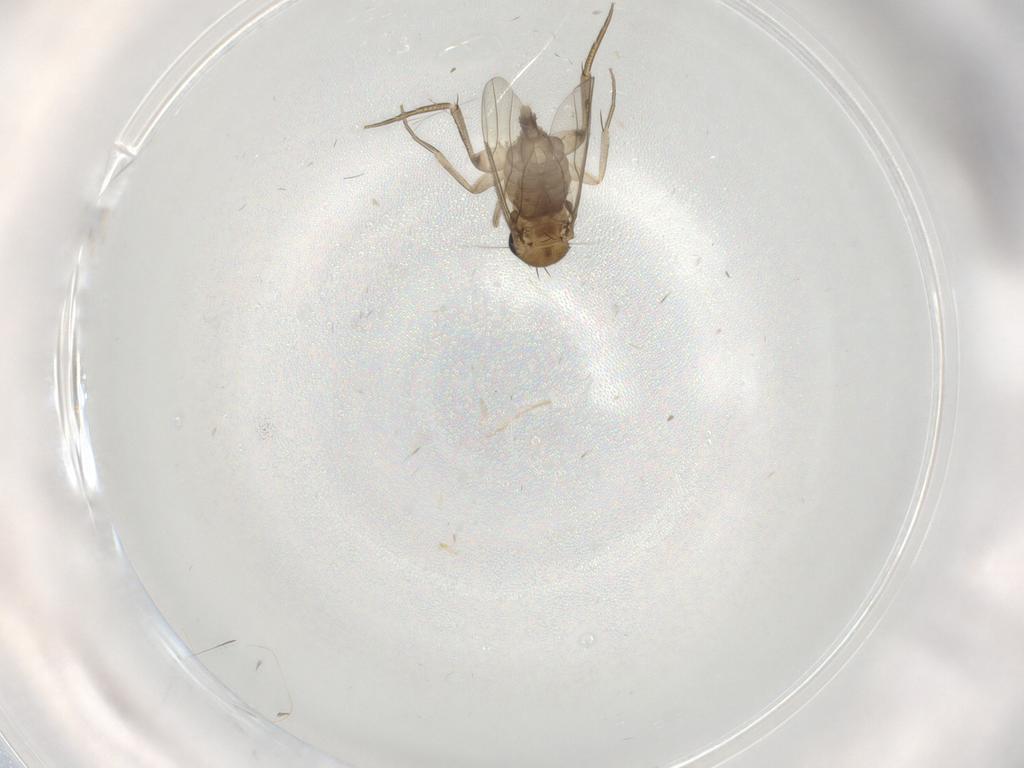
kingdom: Animalia
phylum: Arthropoda
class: Insecta
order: Diptera
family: Phoridae
